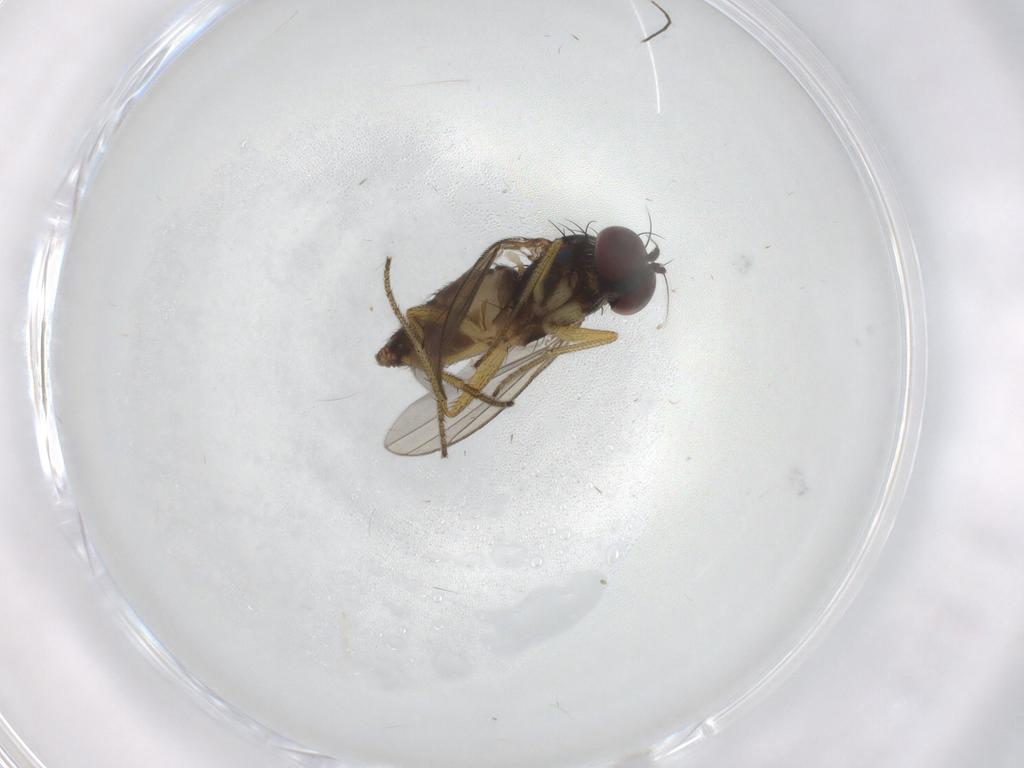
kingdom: Animalia
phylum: Arthropoda
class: Insecta
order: Diptera
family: Dolichopodidae
